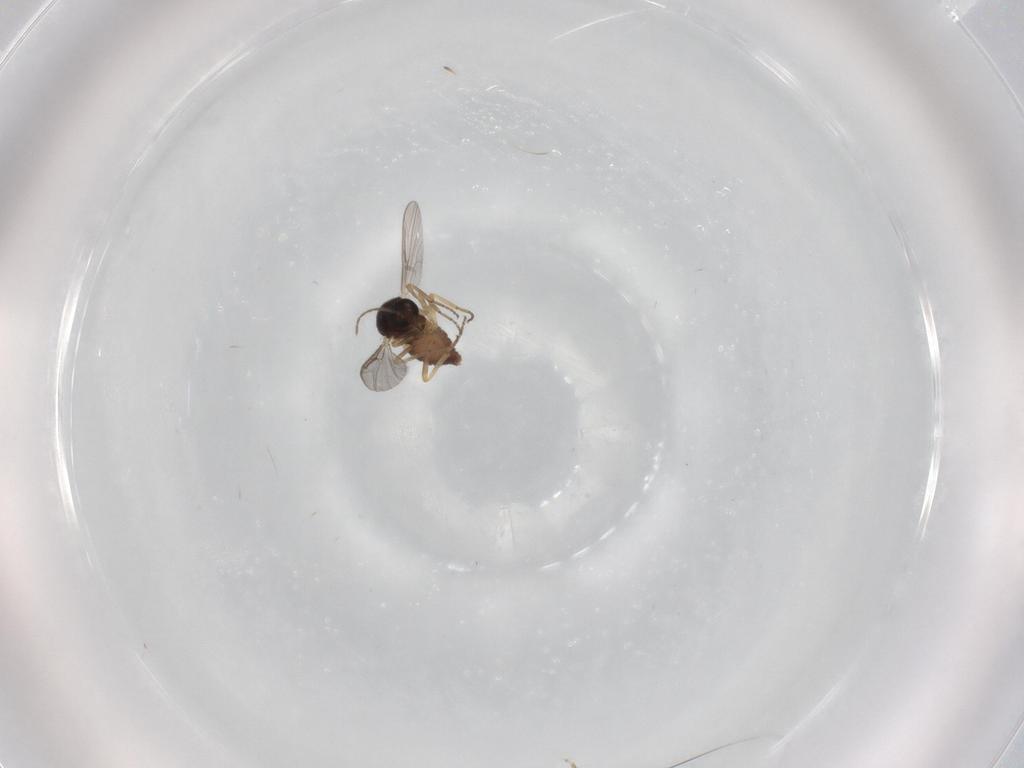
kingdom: Animalia
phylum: Arthropoda
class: Insecta
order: Diptera
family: Ceratopogonidae
